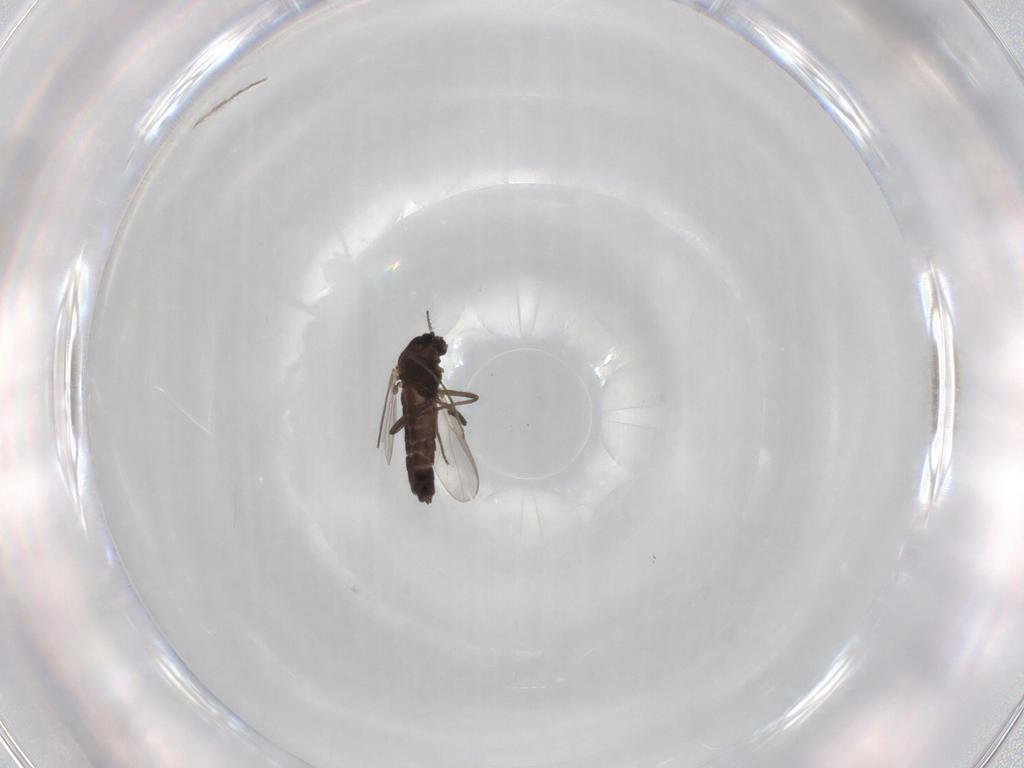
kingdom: Animalia
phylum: Arthropoda
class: Insecta
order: Diptera
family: Chironomidae
